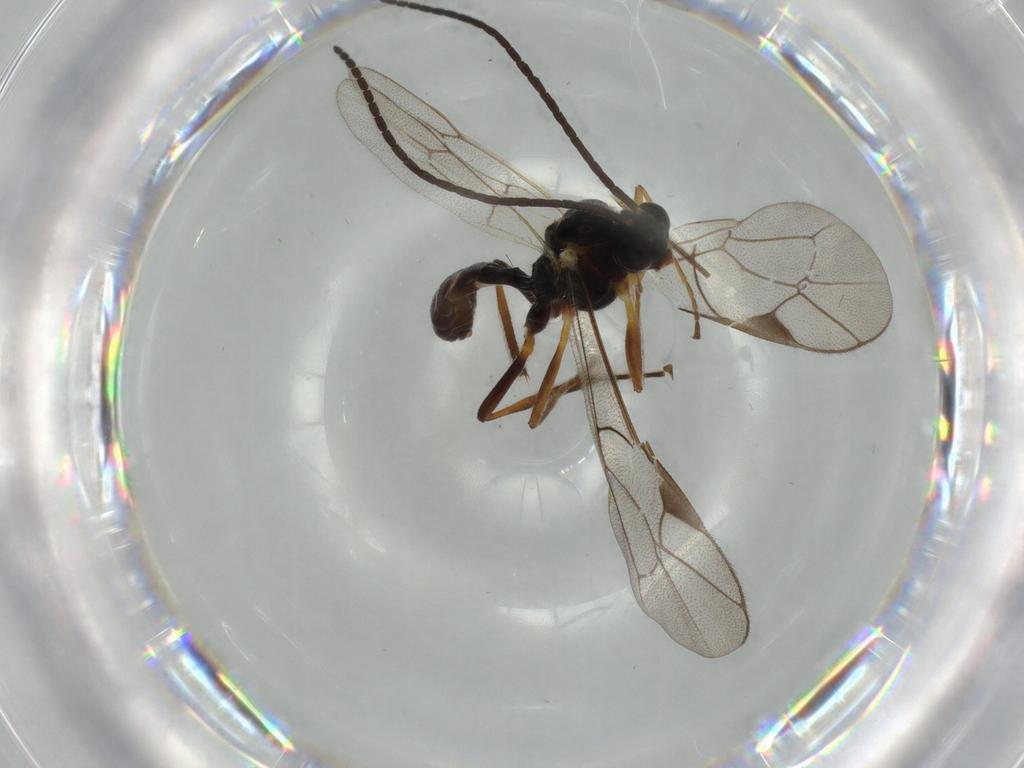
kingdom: Animalia
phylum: Arthropoda
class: Insecta
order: Hymenoptera
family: Ichneumonidae
